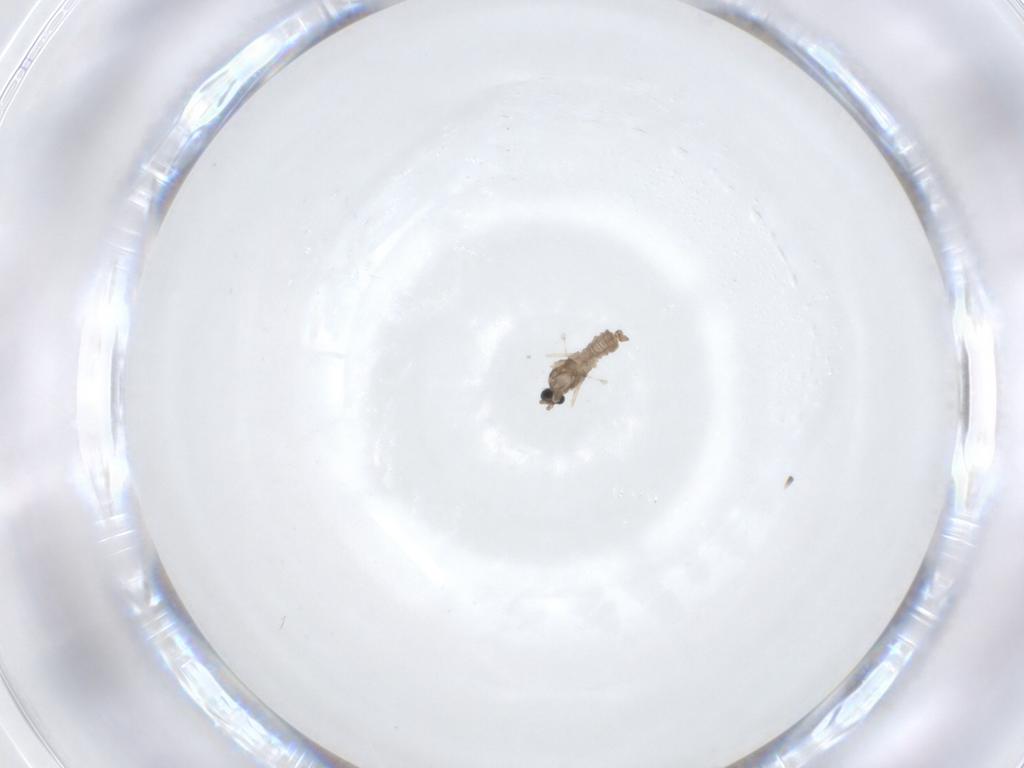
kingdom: Animalia
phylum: Arthropoda
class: Insecta
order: Diptera
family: Cecidomyiidae
